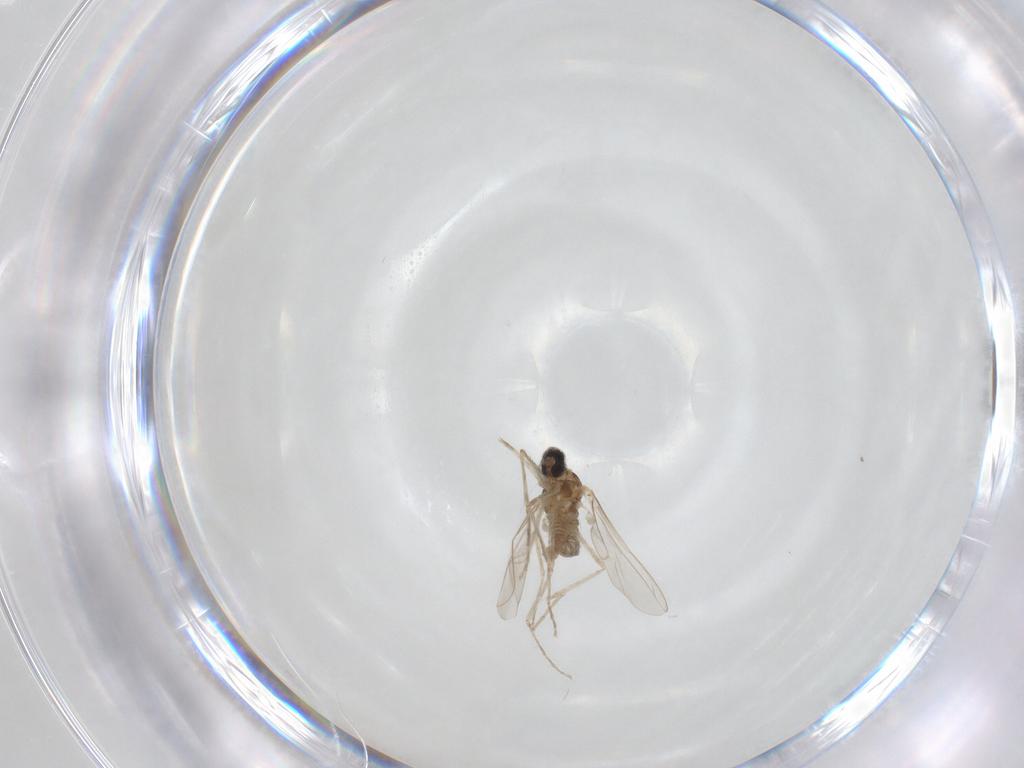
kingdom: Animalia
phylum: Arthropoda
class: Insecta
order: Diptera
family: Cecidomyiidae
